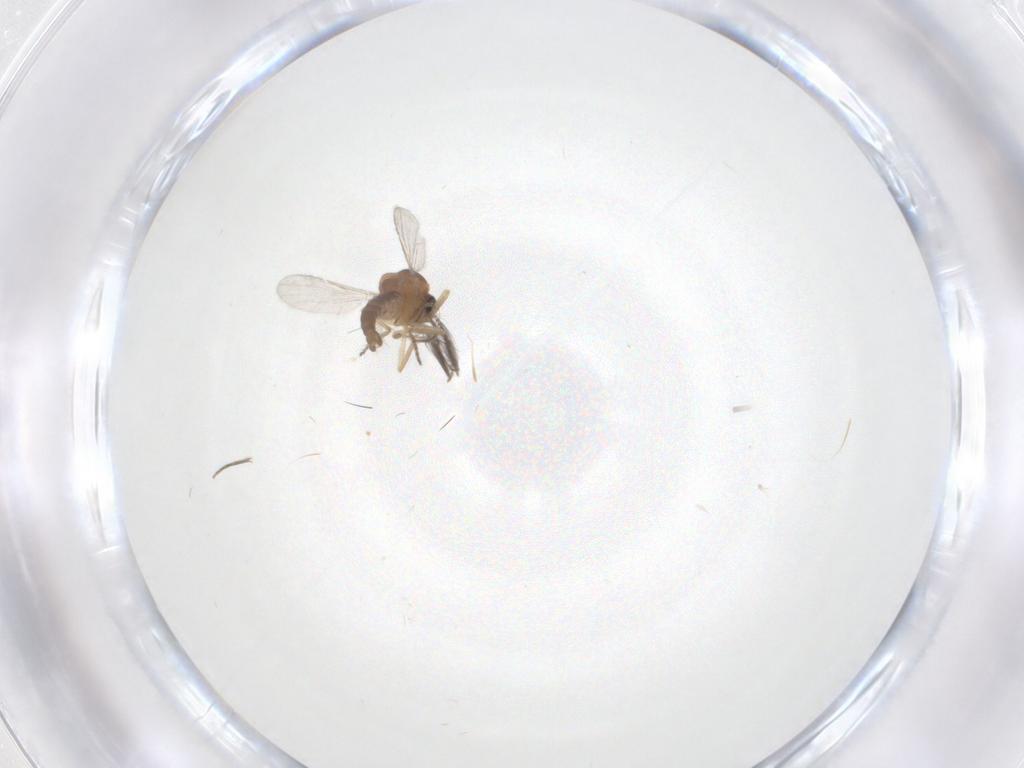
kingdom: Animalia
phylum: Arthropoda
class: Insecta
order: Diptera
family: Ceratopogonidae
